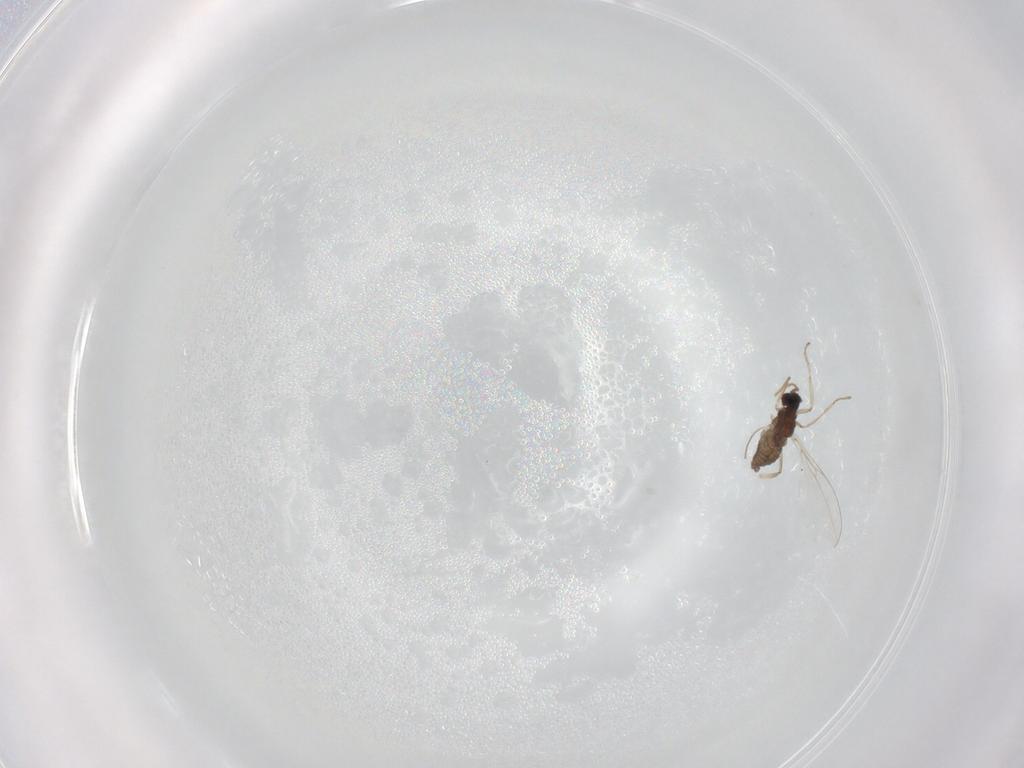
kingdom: Animalia
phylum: Arthropoda
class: Insecta
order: Diptera
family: Cecidomyiidae
